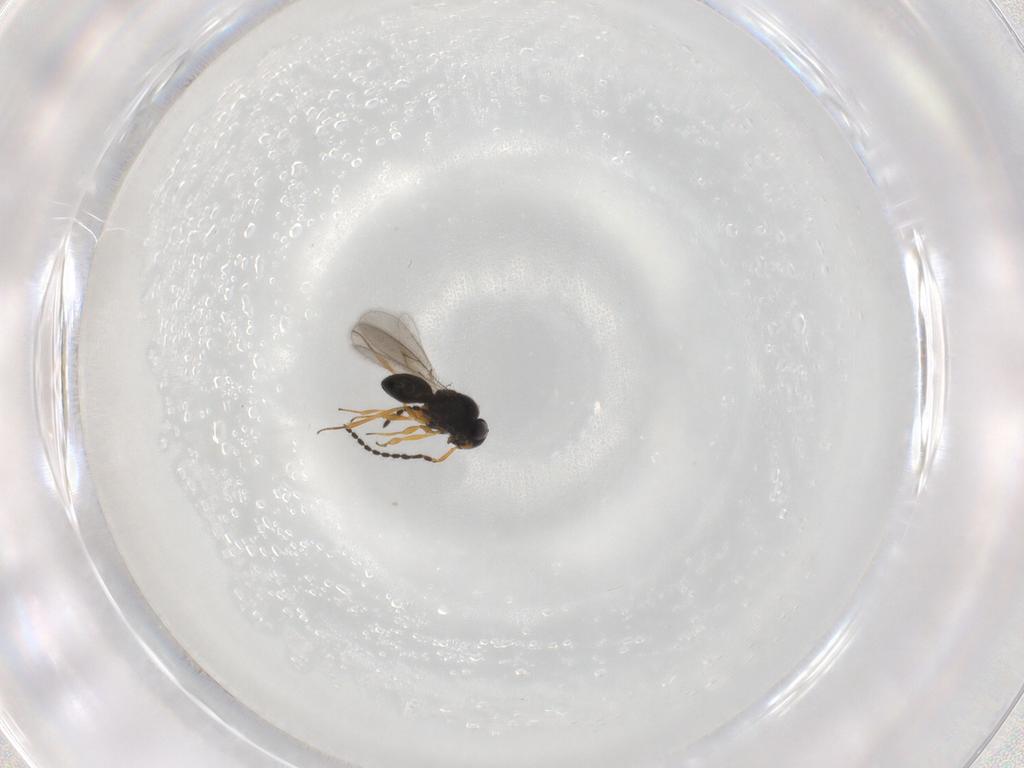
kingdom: Animalia
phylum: Arthropoda
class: Insecta
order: Hymenoptera
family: Scelionidae
